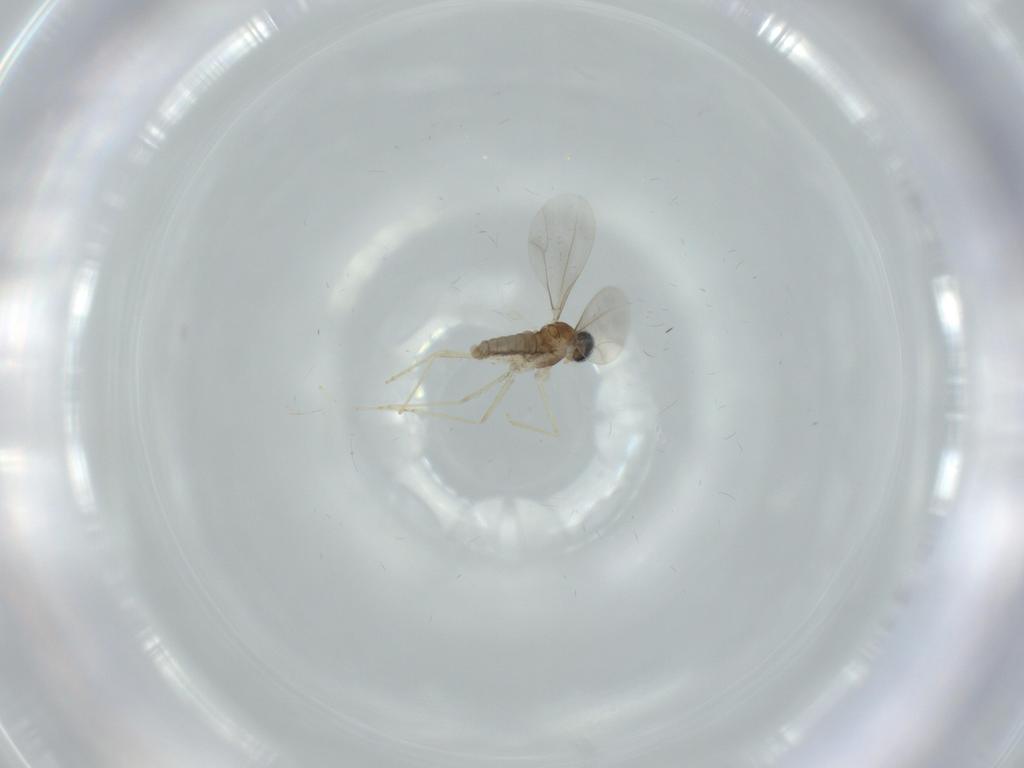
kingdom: Animalia
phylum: Arthropoda
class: Insecta
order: Diptera
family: Cecidomyiidae
